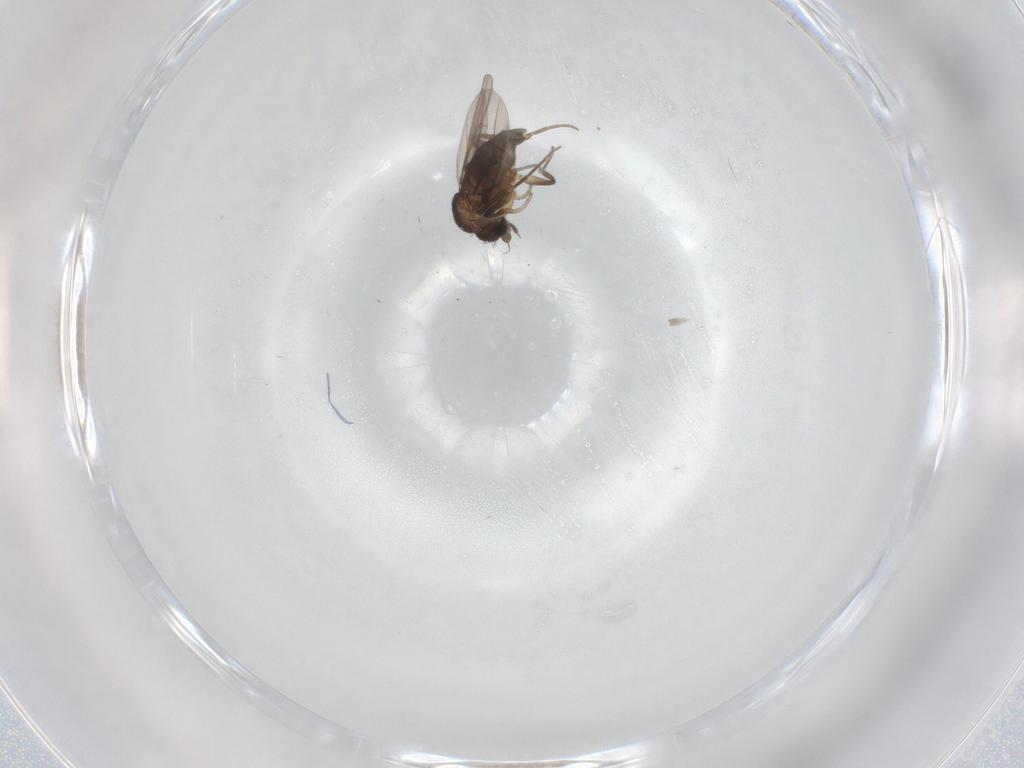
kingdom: Animalia
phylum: Arthropoda
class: Insecta
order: Diptera
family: Phoridae
